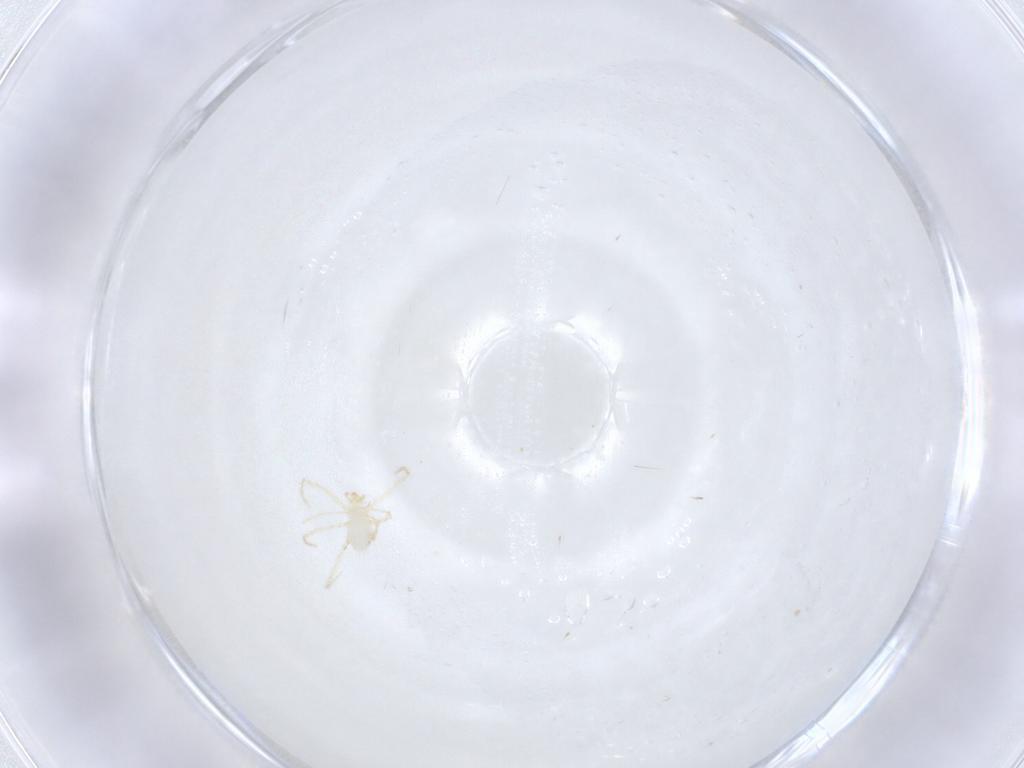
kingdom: Animalia
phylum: Arthropoda
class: Arachnida
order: Trombidiformes
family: Erythraeidae
